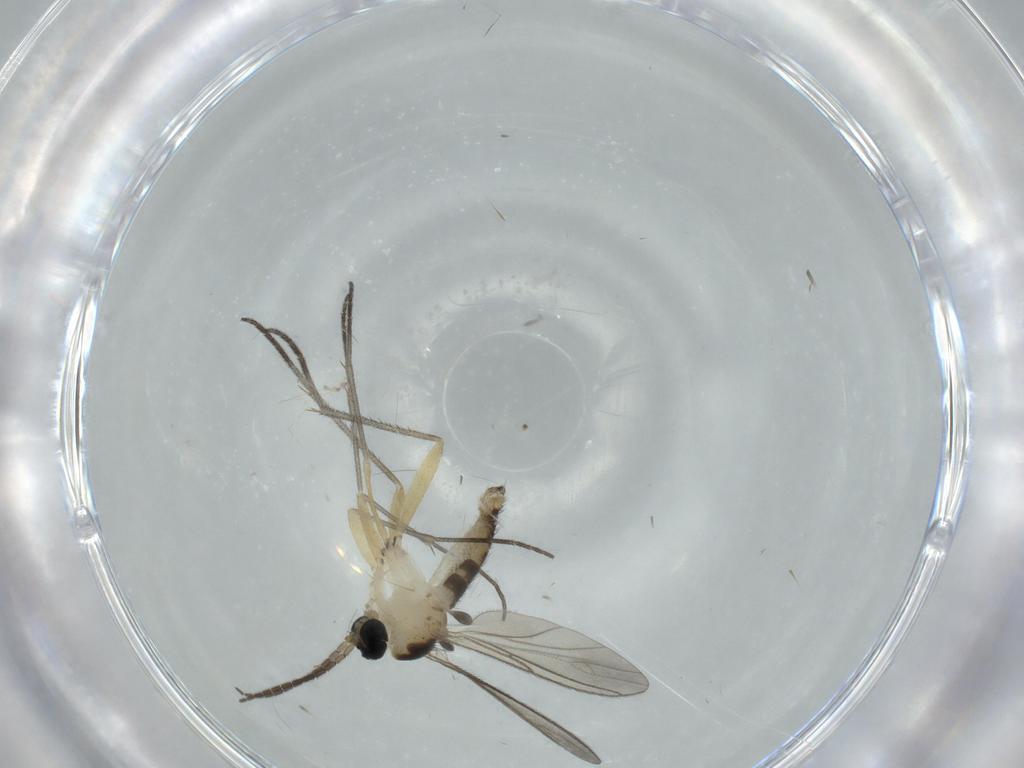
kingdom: Animalia
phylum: Arthropoda
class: Insecta
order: Diptera
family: Sciaridae
